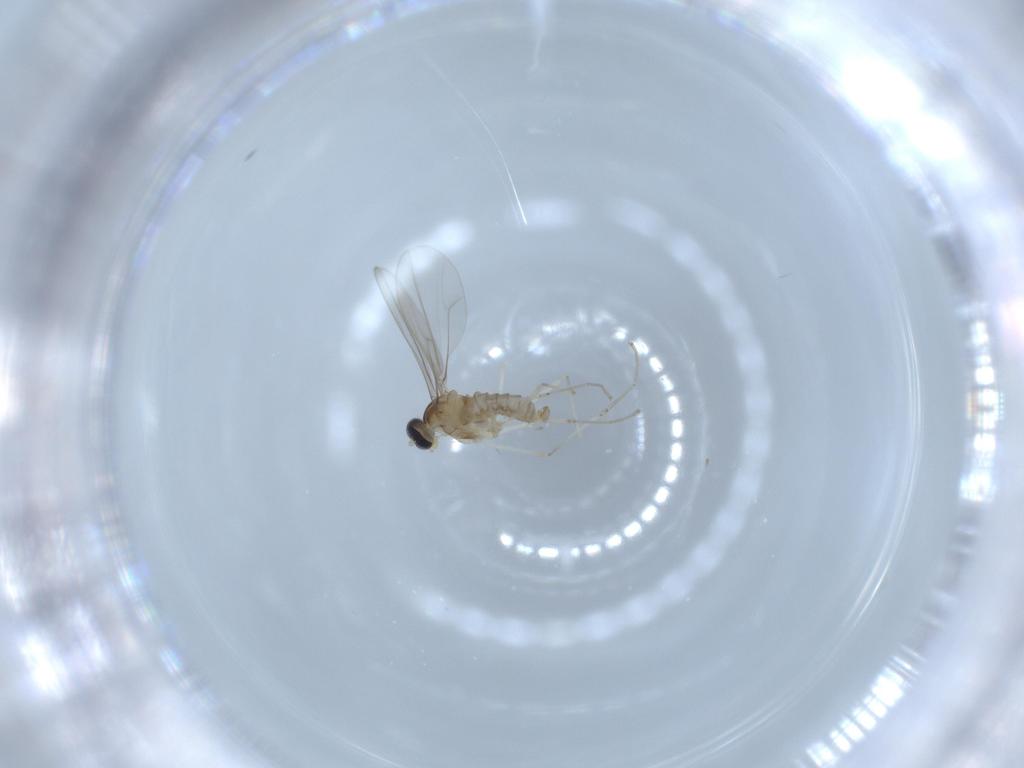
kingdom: Animalia
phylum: Arthropoda
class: Insecta
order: Diptera
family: Cecidomyiidae
